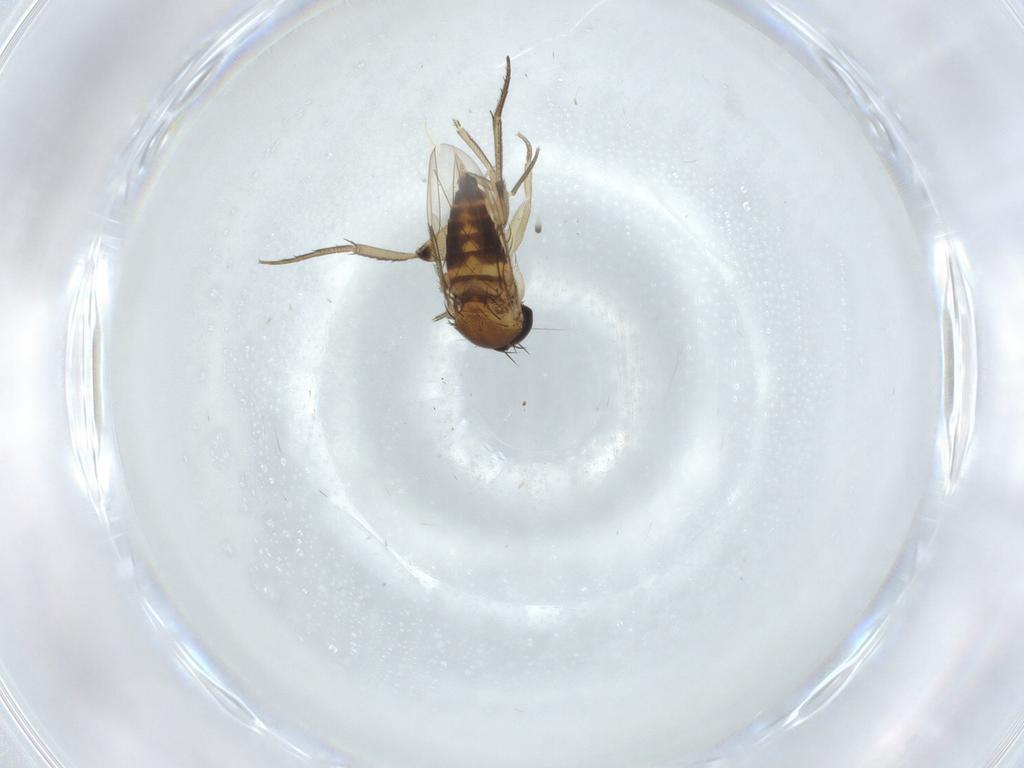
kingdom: Animalia
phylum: Arthropoda
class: Insecta
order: Diptera
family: Phoridae
